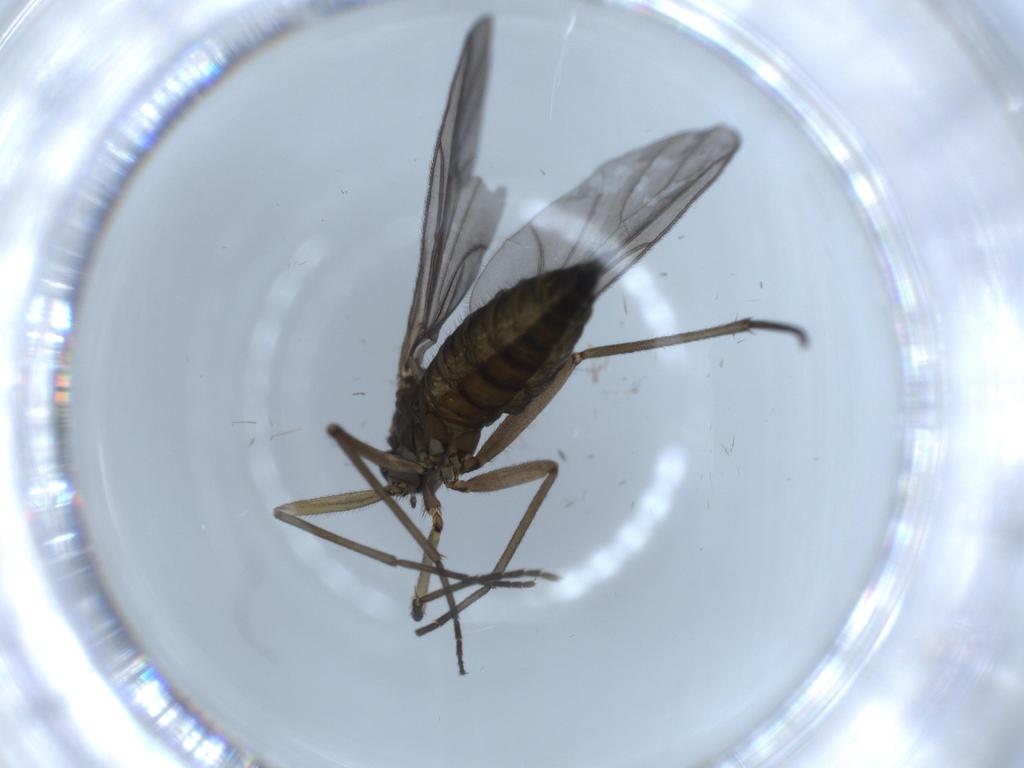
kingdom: Animalia
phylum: Arthropoda
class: Insecta
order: Diptera
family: Sciaridae
